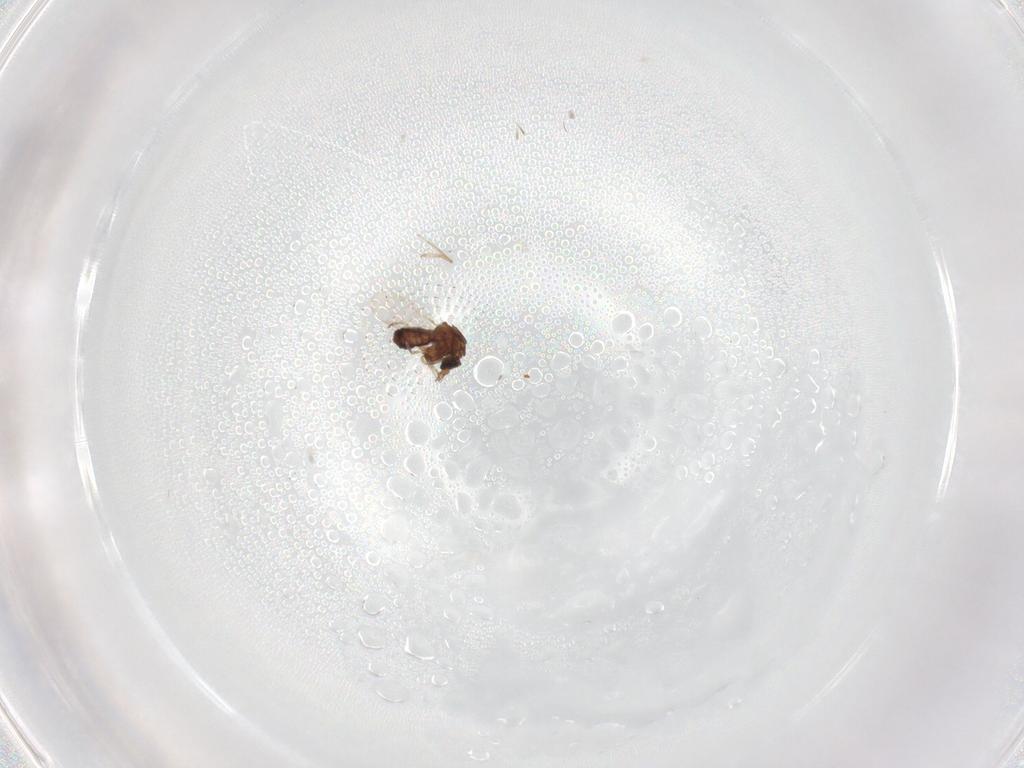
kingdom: Animalia
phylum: Arthropoda
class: Insecta
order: Diptera
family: Ceratopogonidae
